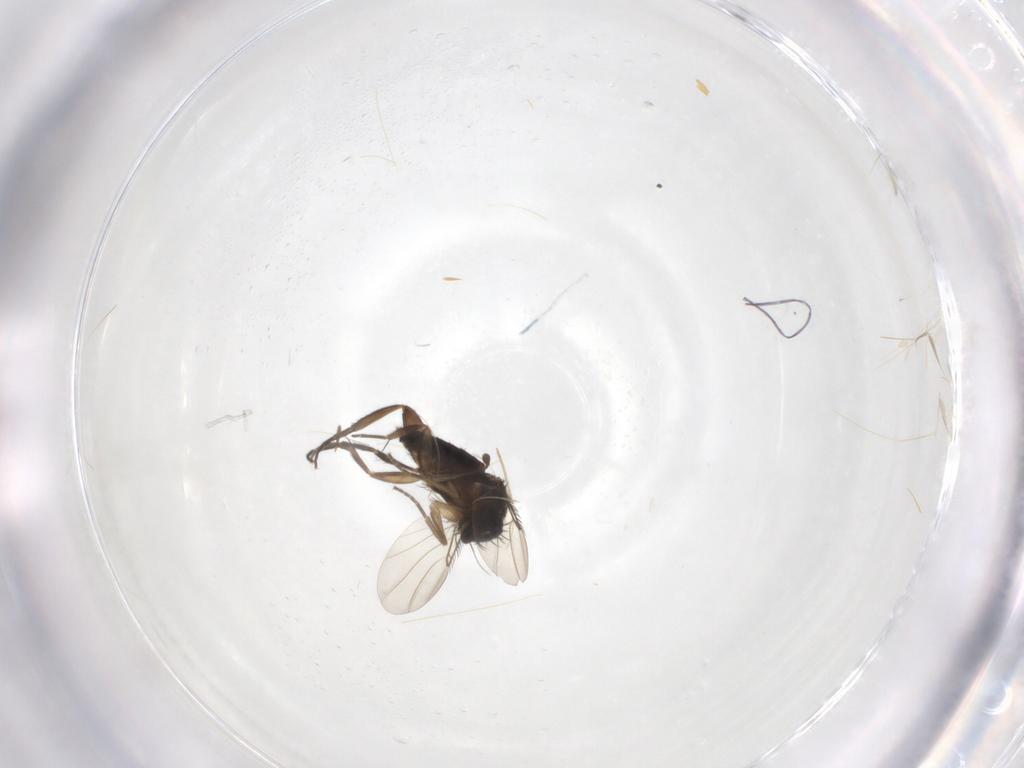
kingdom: Animalia
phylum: Arthropoda
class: Insecta
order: Diptera
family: Phoridae
